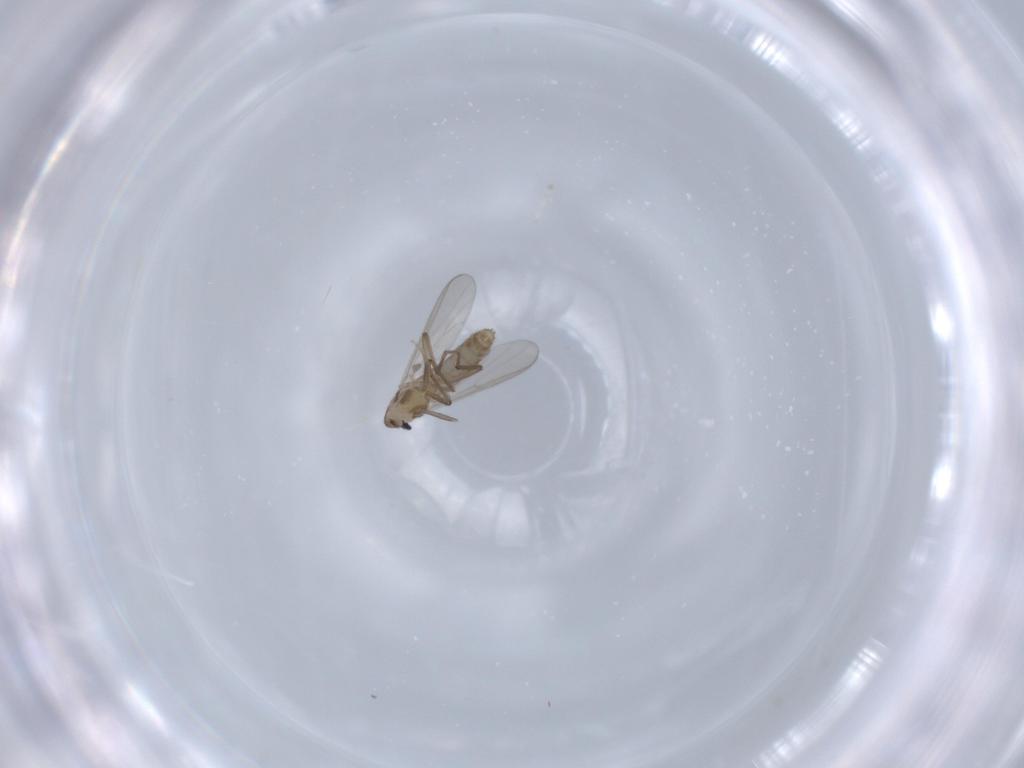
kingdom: Animalia
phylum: Arthropoda
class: Insecta
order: Diptera
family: Chironomidae
